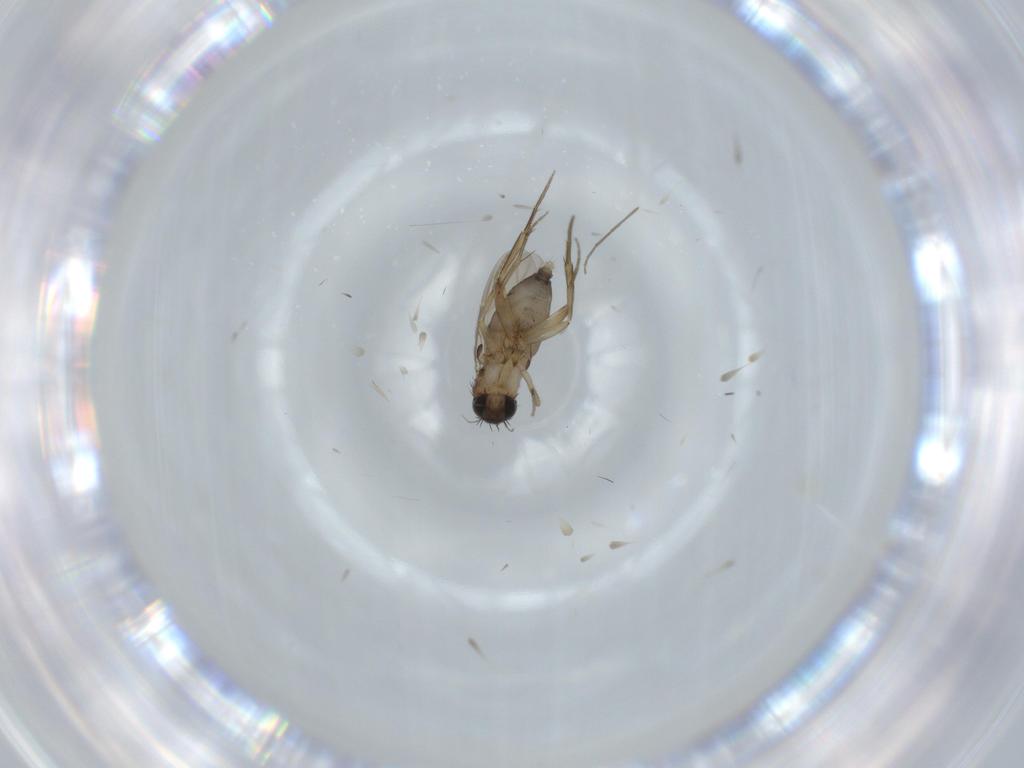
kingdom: Animalia
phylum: Arthropoda
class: Insecta
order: Diptera
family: Phoridae
